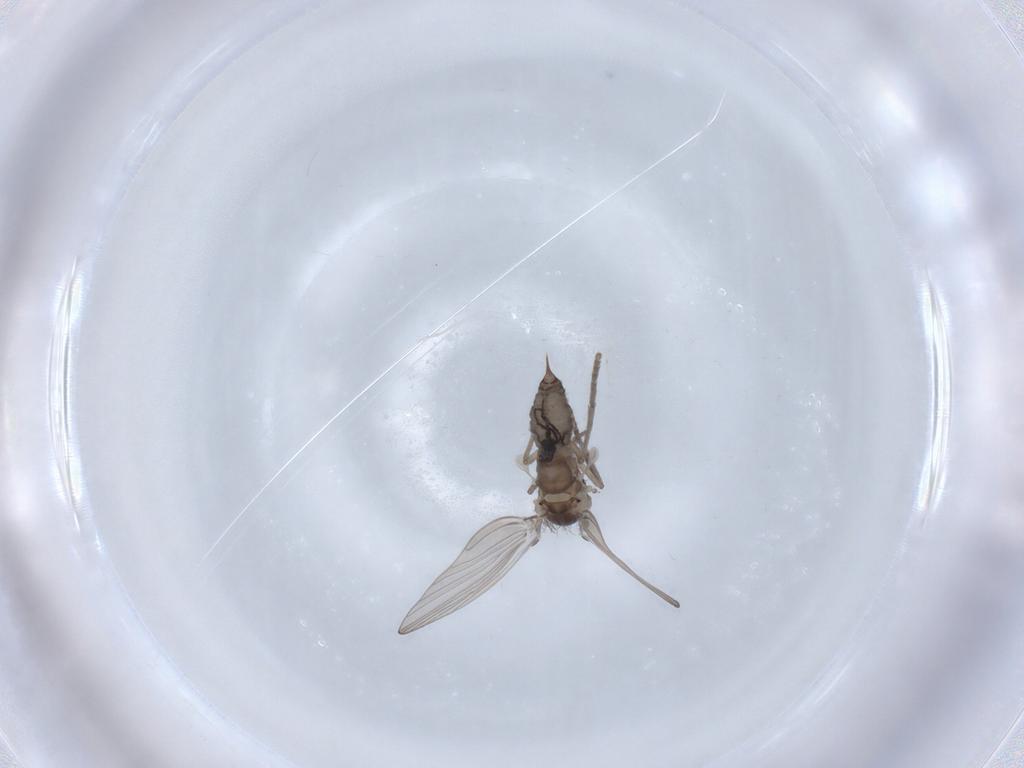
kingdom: Animalia
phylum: Arthropoda
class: Insecta
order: Diptera
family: Psychodidae
